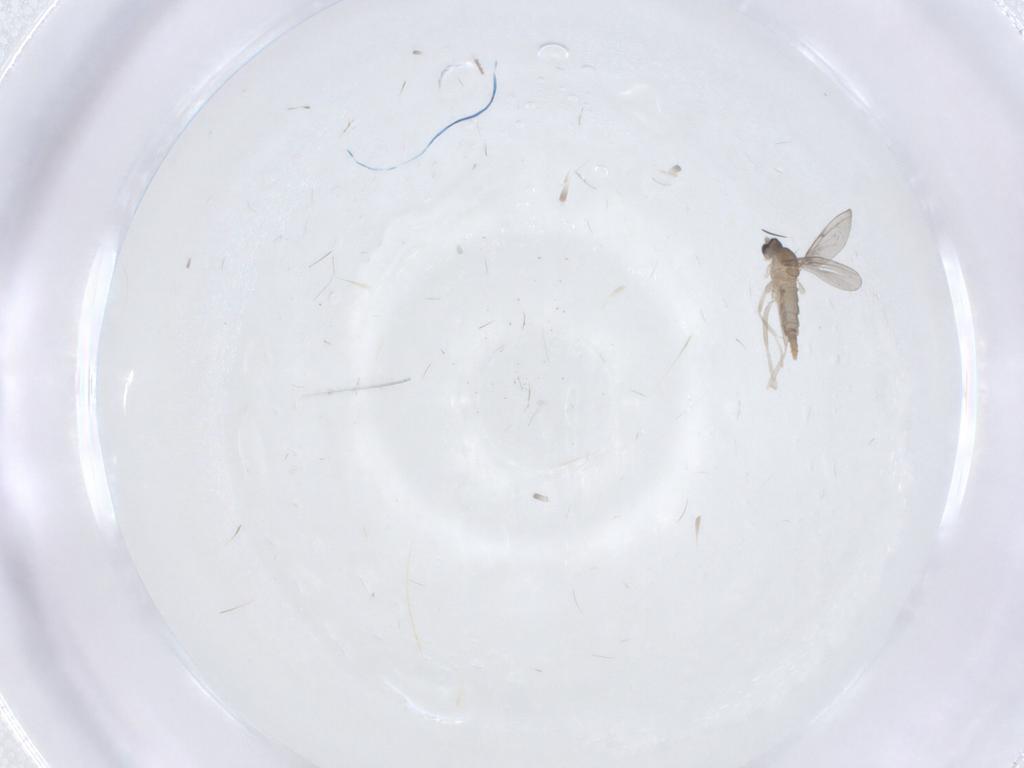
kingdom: Animalia
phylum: Arthropoda
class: Insecta
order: Diptera
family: Cecidomyiidae
